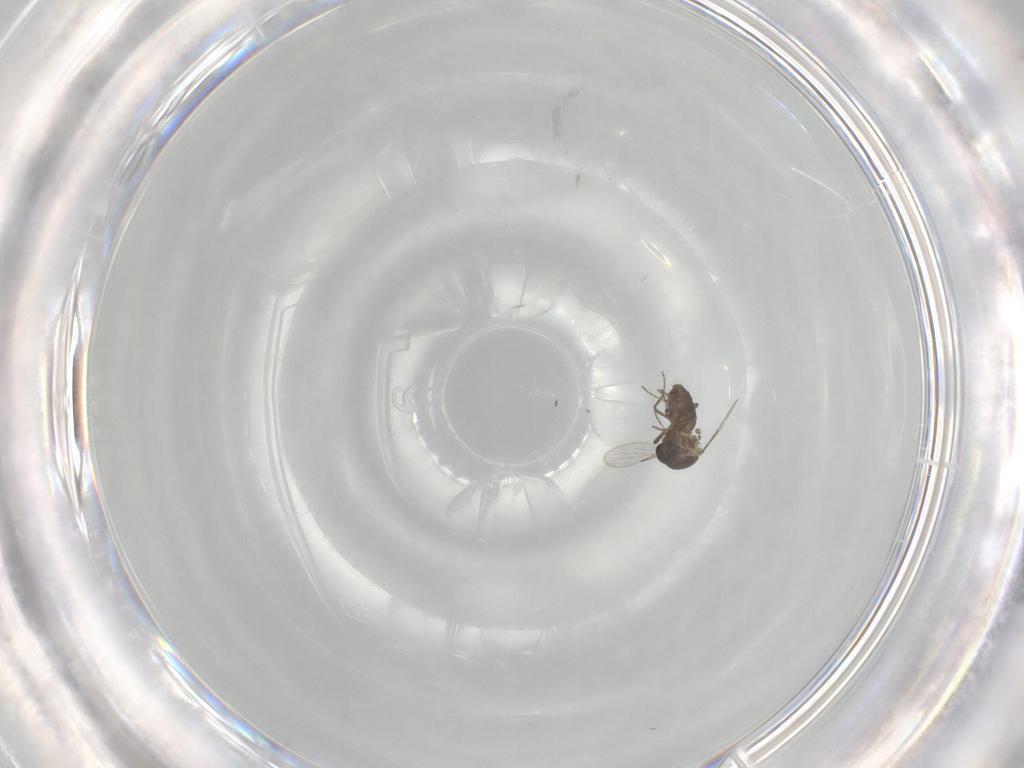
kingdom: Animalia
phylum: Arthropoda
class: Insecta
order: Diptera
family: Ceratopogonidae
